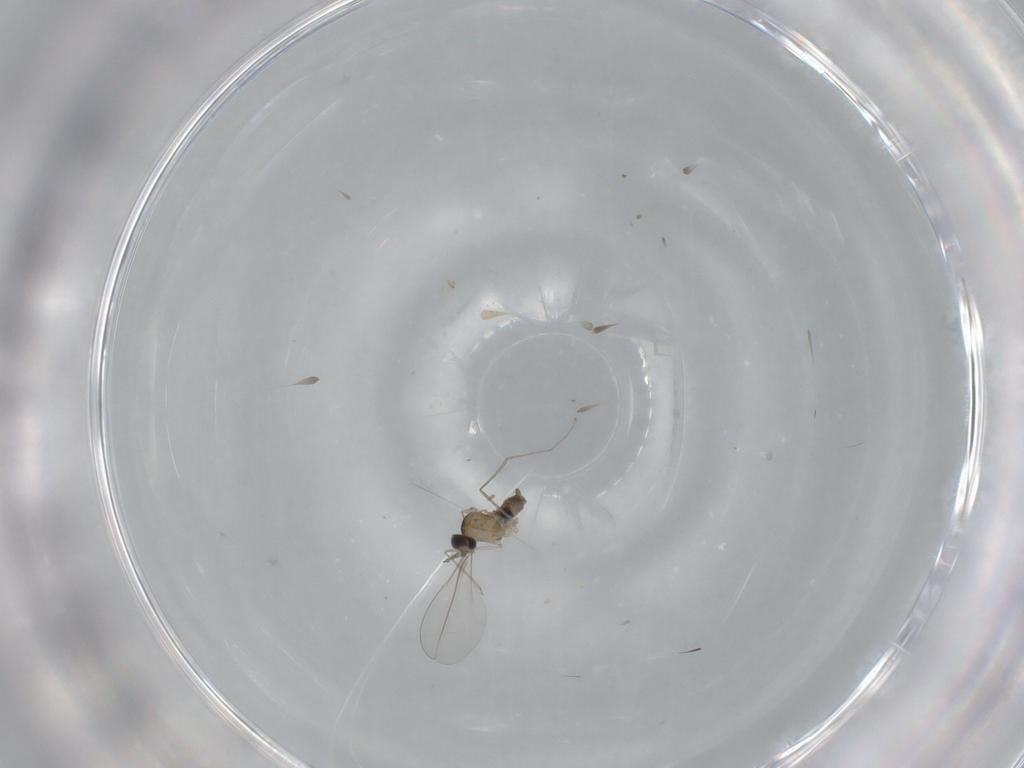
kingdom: Animalia
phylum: Arthropoda
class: Insecta
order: Diptera
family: Cecidomyiidae
